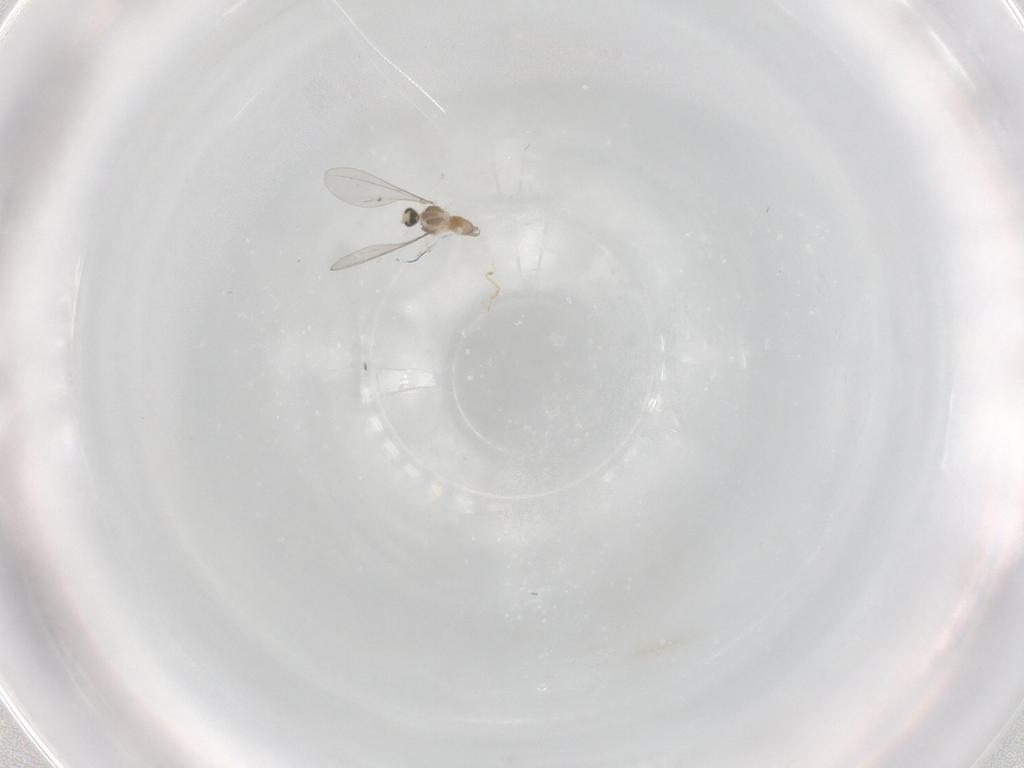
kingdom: Animalia
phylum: Arthropoda
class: Insecta
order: Diptera
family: Cecidomyiidae
